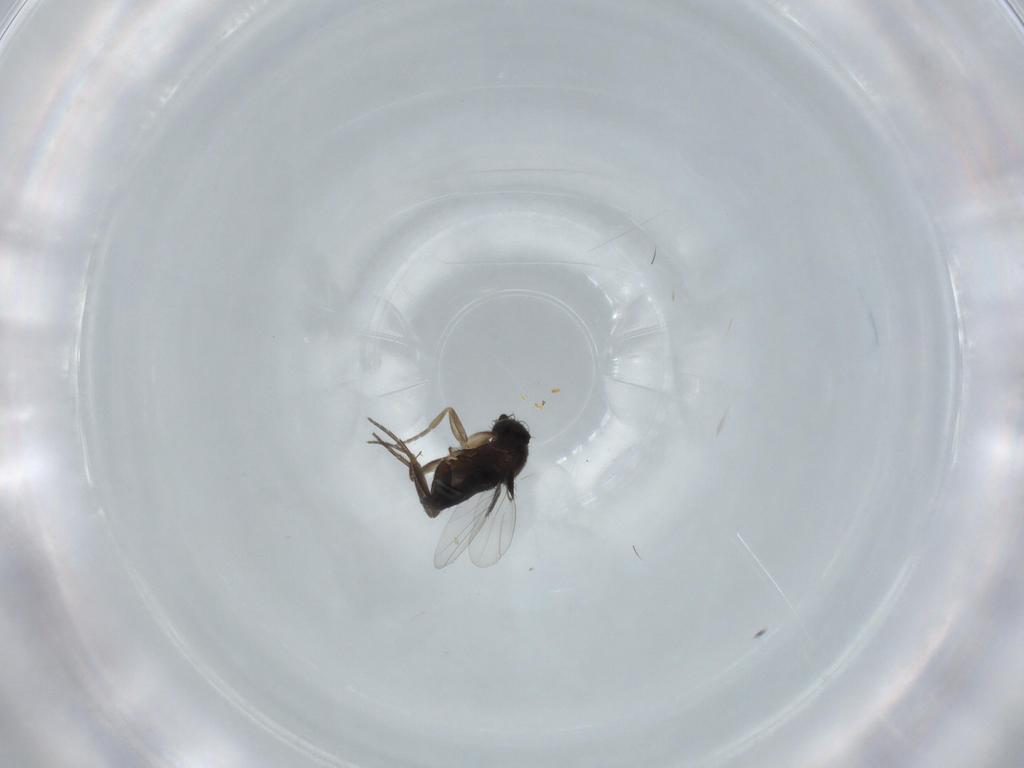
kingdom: Animalia
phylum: Arthropoda
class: Insecta
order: Diptera
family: Phoridae
